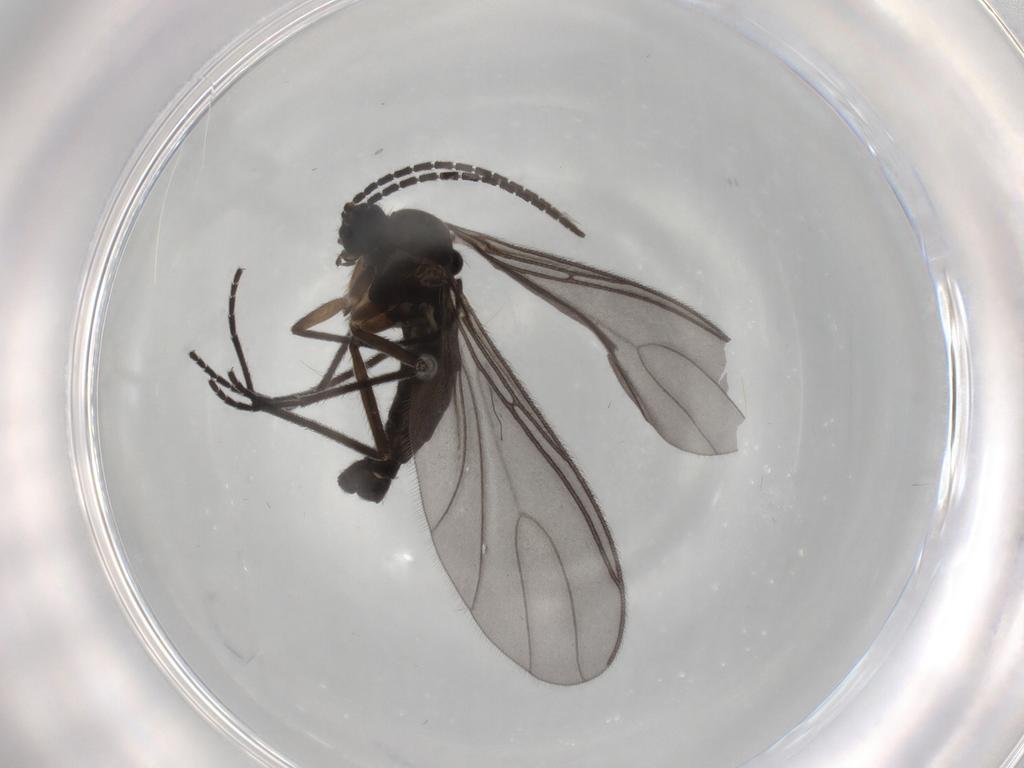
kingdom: Animalia
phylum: Arthropoda
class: Insecta
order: Diptera
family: Sciaridae
